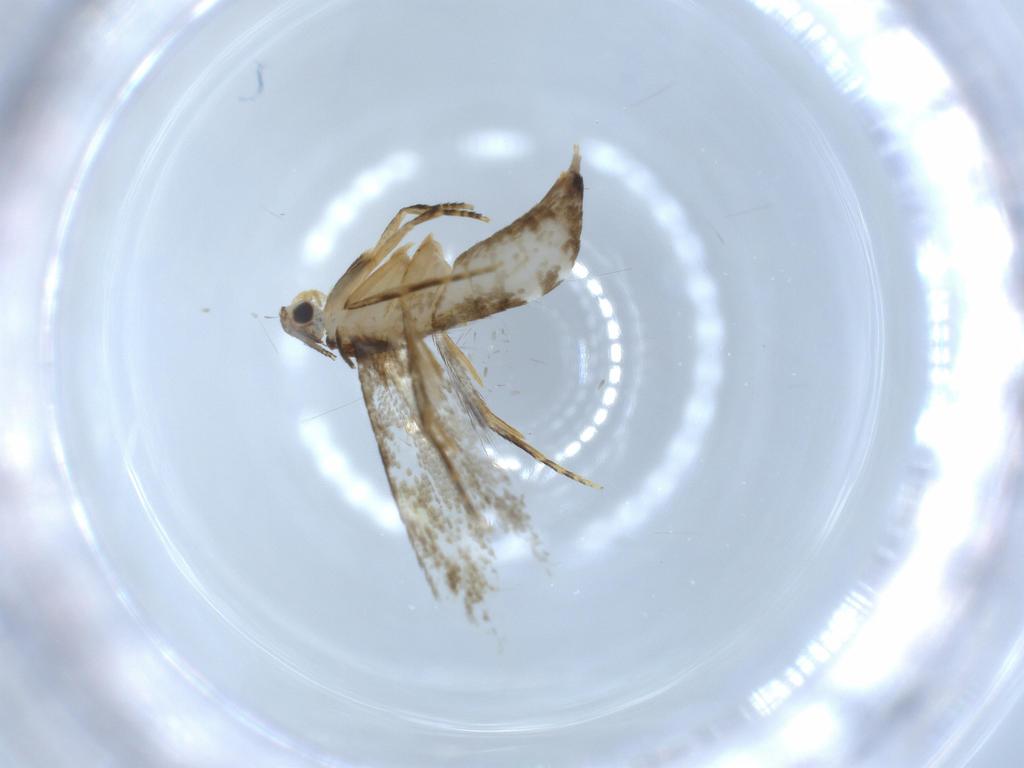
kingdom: Animalia
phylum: Arthropoda
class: Insecta
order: Lepidoptera
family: Tineidae
